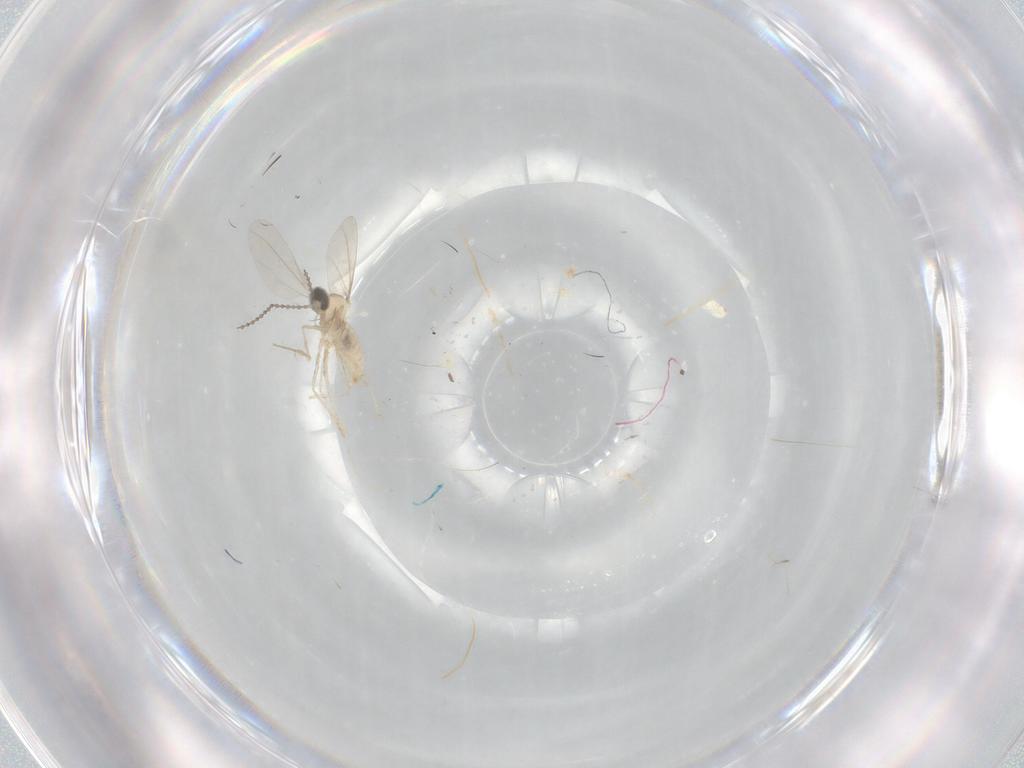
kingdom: Animalia
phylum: Arthropoda
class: Insecta
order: Diptera
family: Cecidomyiidae
